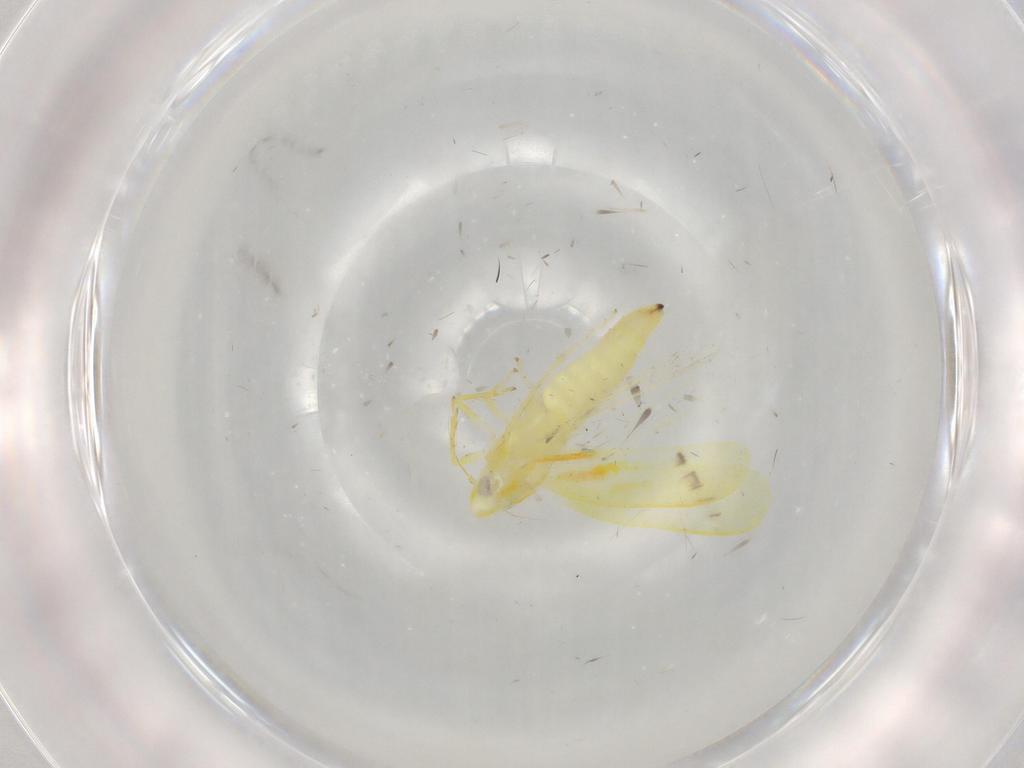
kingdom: Animalia
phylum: Arthropoda
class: Insecta
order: Hemiptera
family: Cicadellidae
